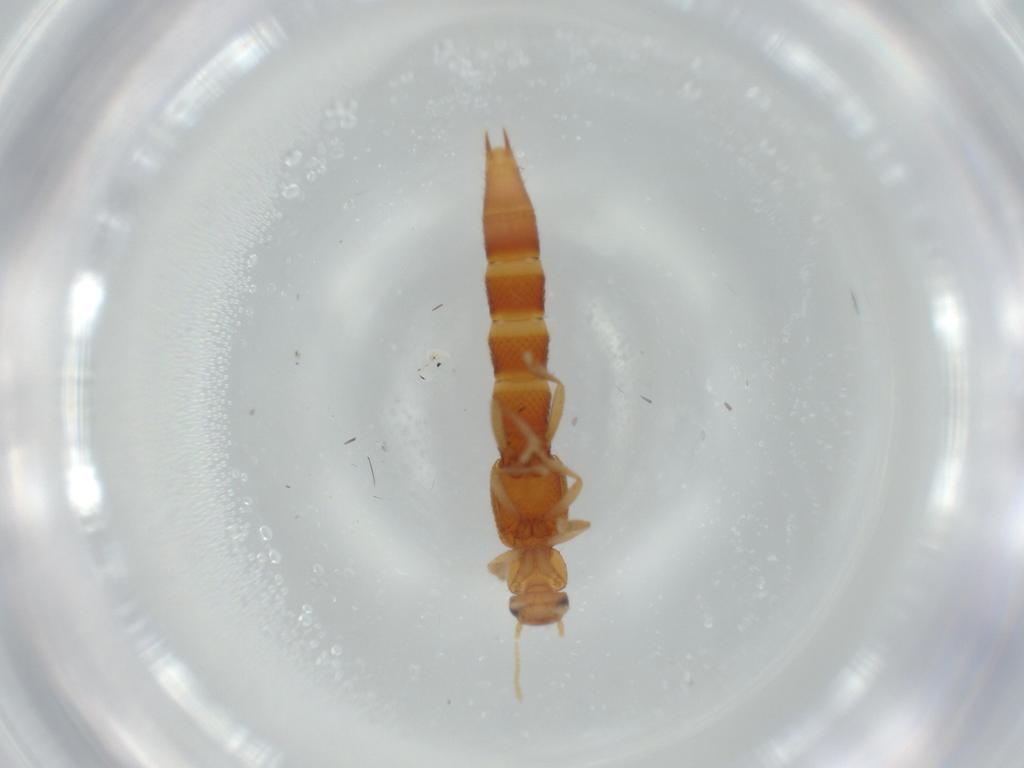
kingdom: Animalia
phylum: Arthropoda
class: Insecta
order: Coleoptera
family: Staphylinidae
